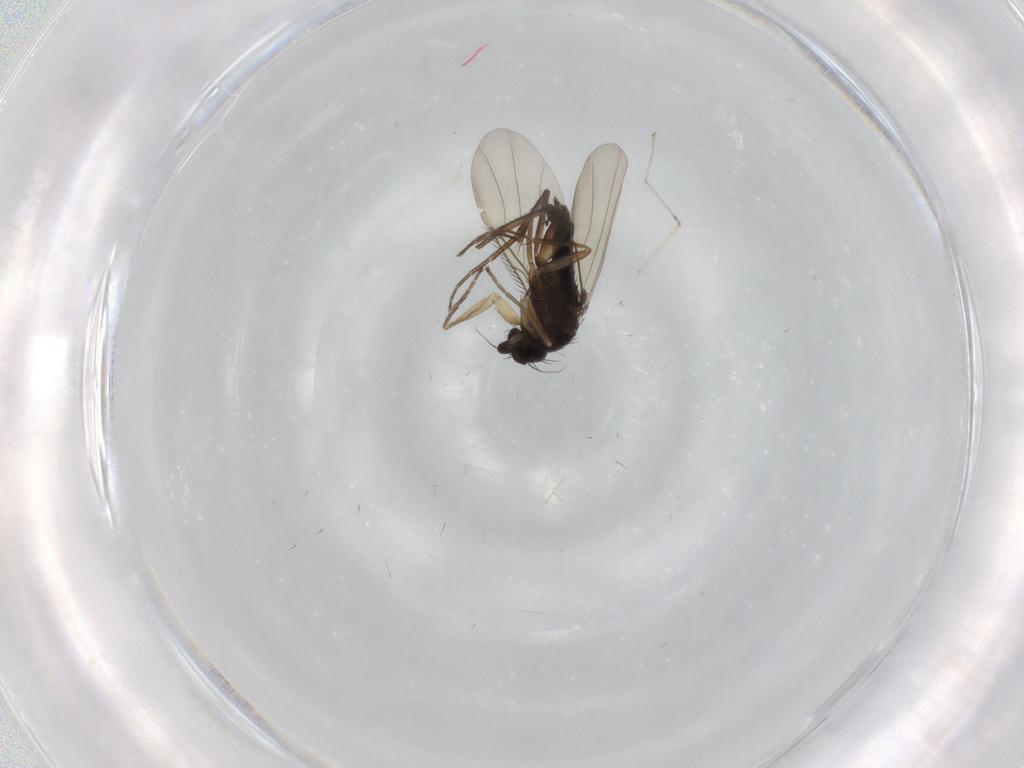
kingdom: Animalia
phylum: Arthropoda
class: Insecta
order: Diptera
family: Phoridae
